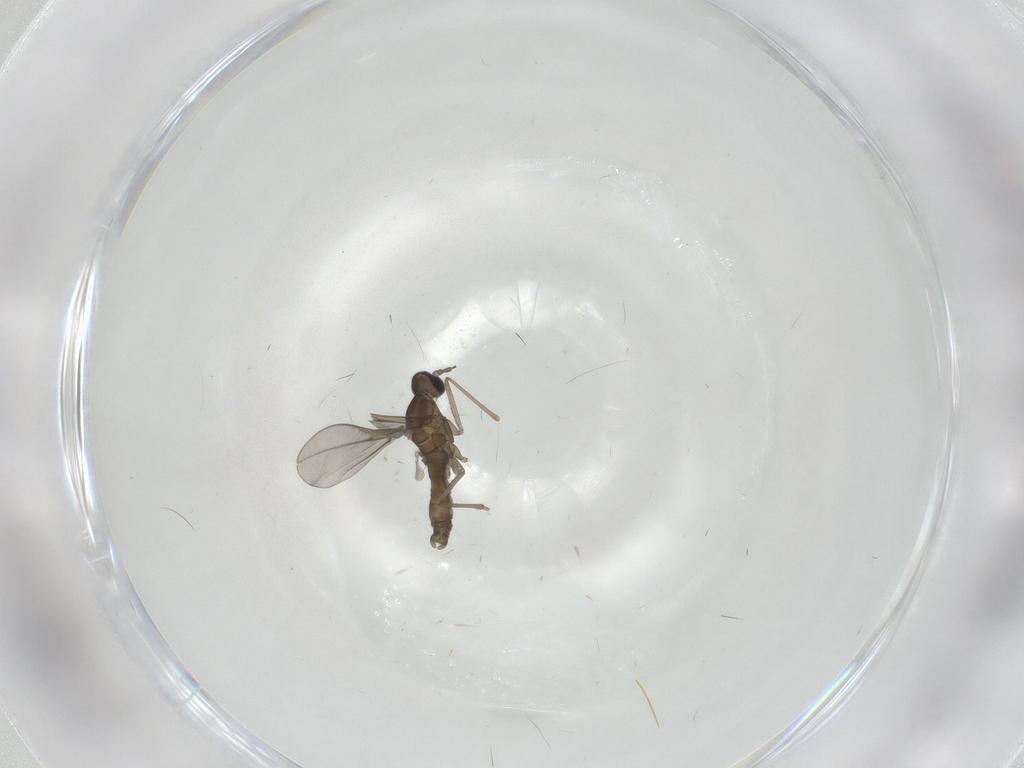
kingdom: Animalia
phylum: Arthropoda
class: Insecta
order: Diptera
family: Cecidomyiidae
